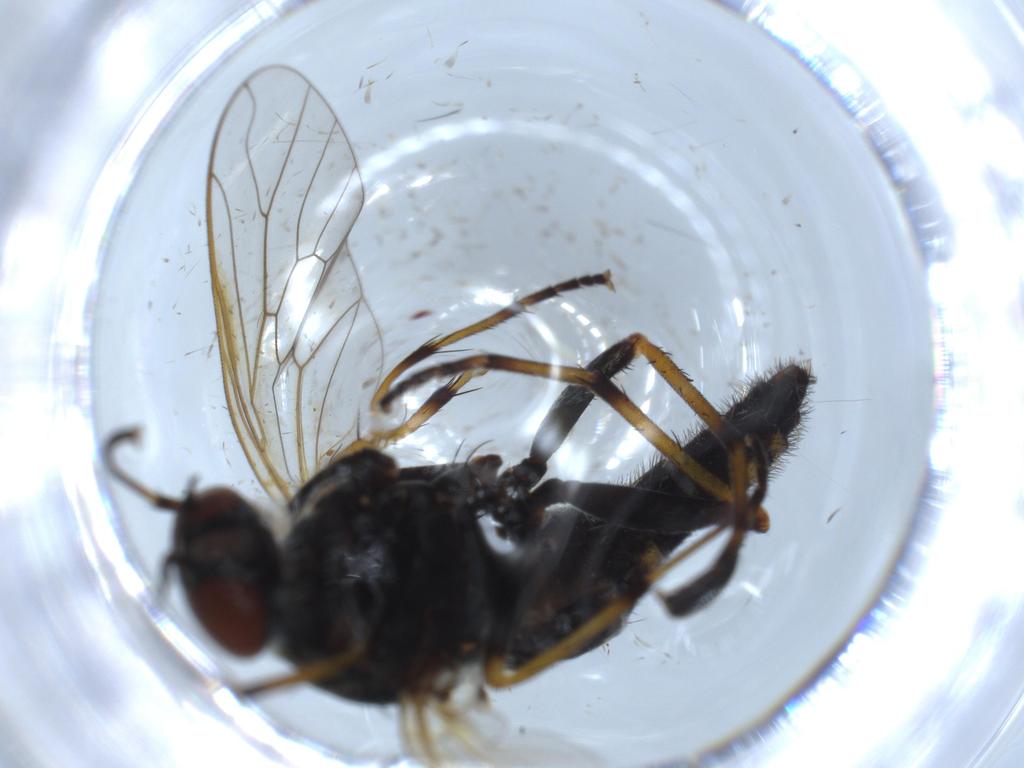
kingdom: Animalia
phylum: Arthropoda
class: Insecta
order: Diptera
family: Therevidae
